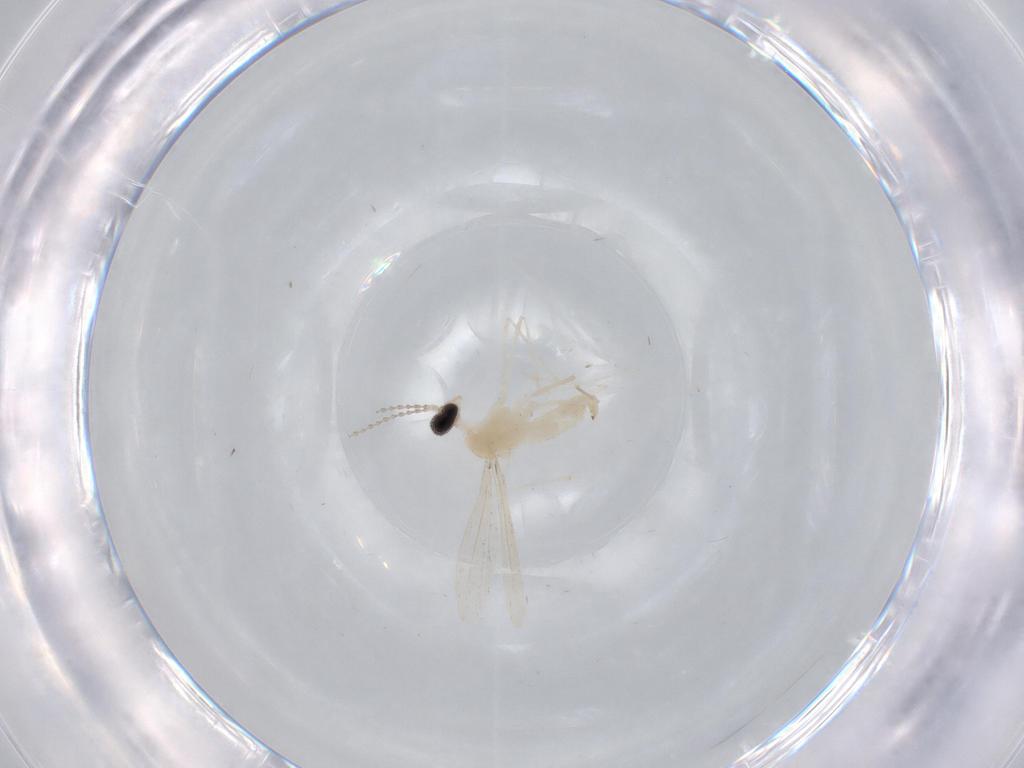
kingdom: Animalia
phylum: Arthropoda
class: Insecta
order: Diptera
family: Cecidomyiidae
